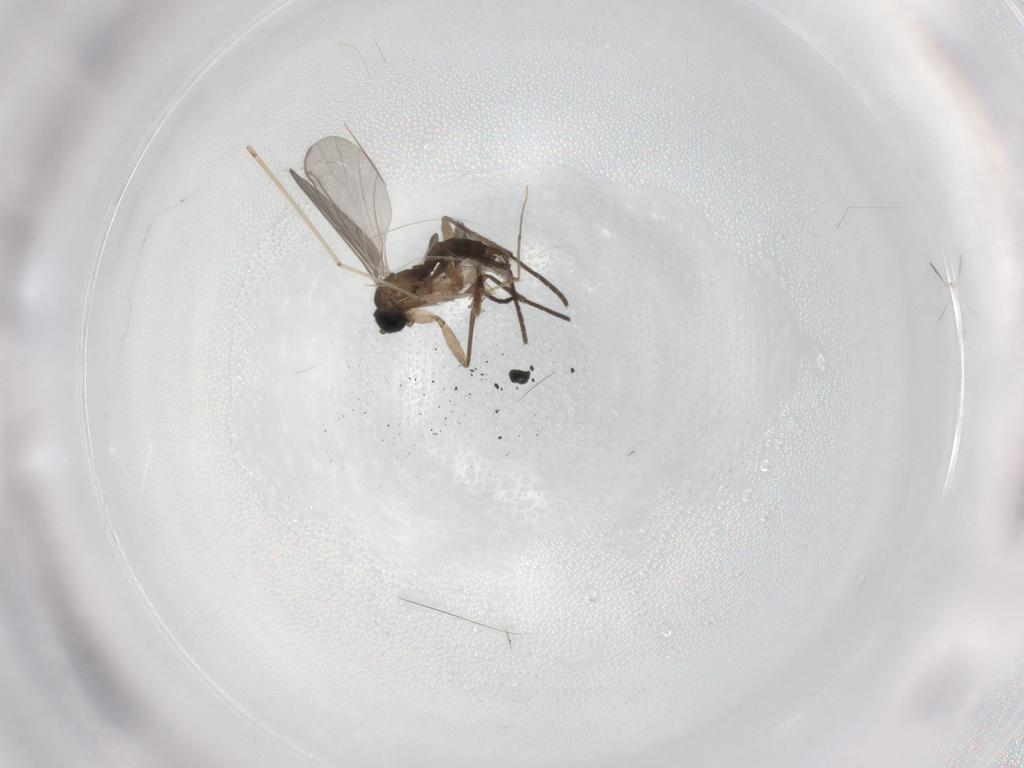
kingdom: Animalia
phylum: Arthropoda
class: Insecta
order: Diptera
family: Sciaridae
